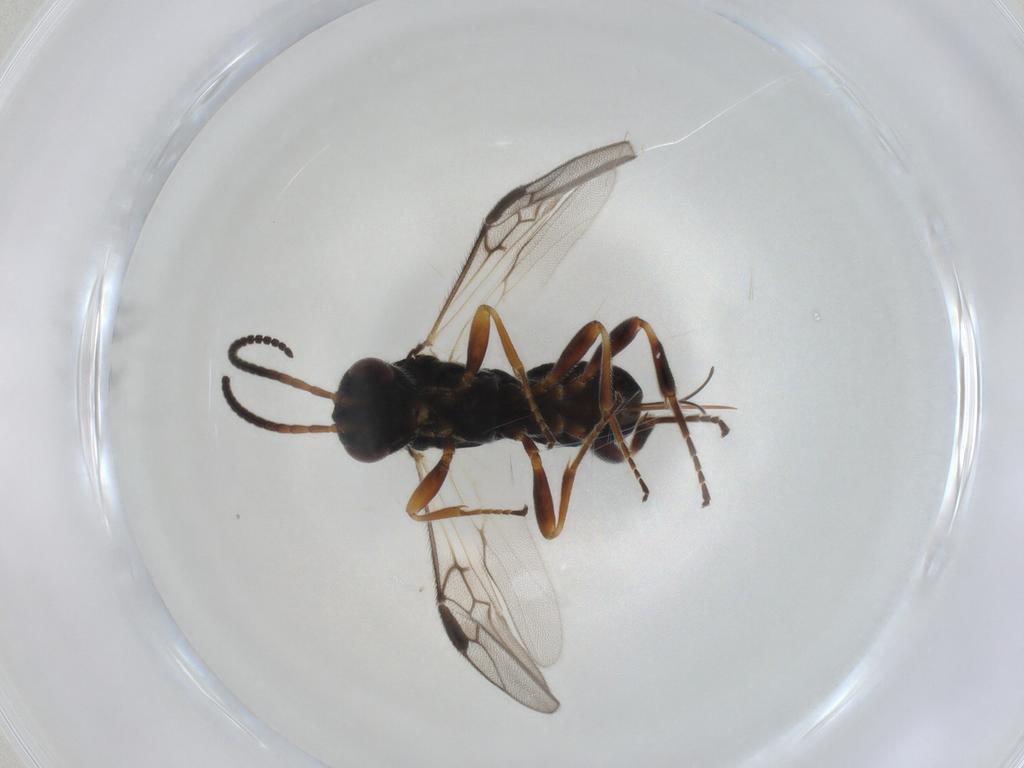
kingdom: Animalia
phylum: Arthropoda
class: Insecta
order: Hymenoptera
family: Braconidae
